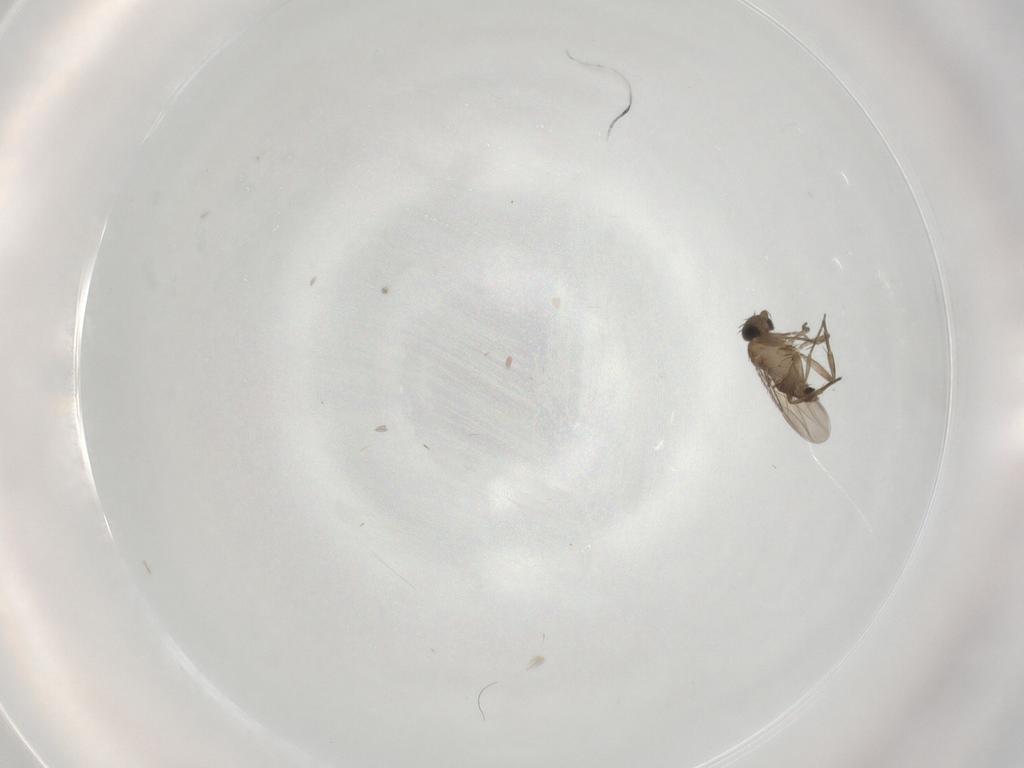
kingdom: Animalia
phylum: Arthropoda
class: Insecta
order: Diptera
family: Phoridae
